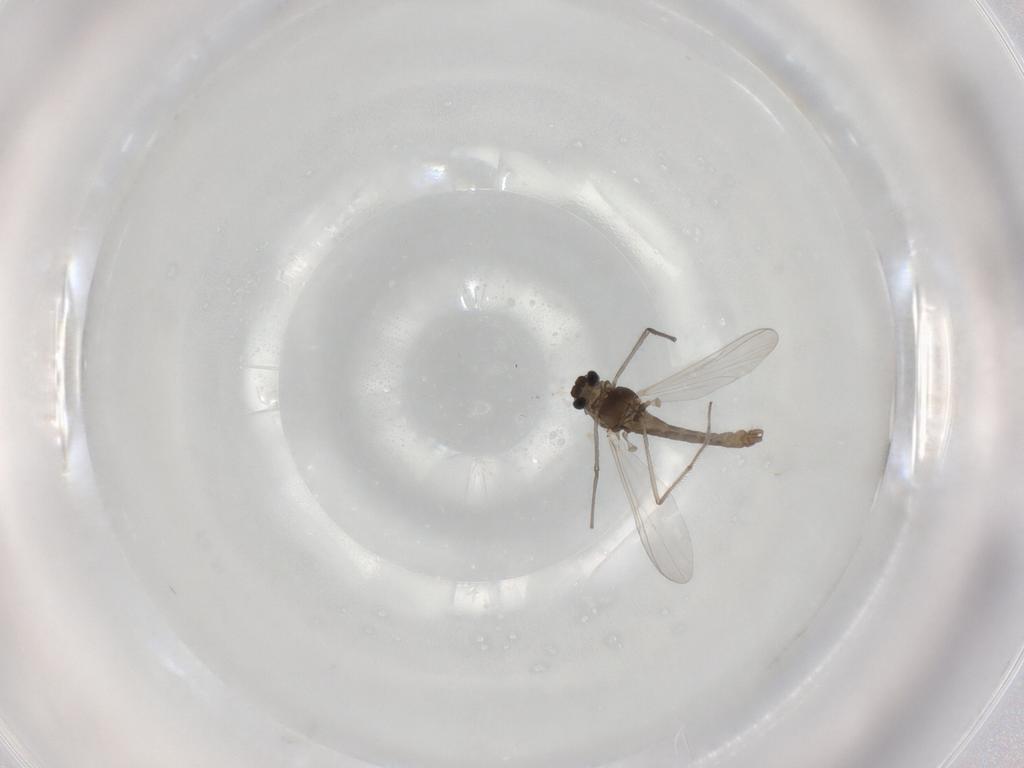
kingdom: Animalia
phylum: Arthropoda
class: Insecta
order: Diptera
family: Chironomidae
